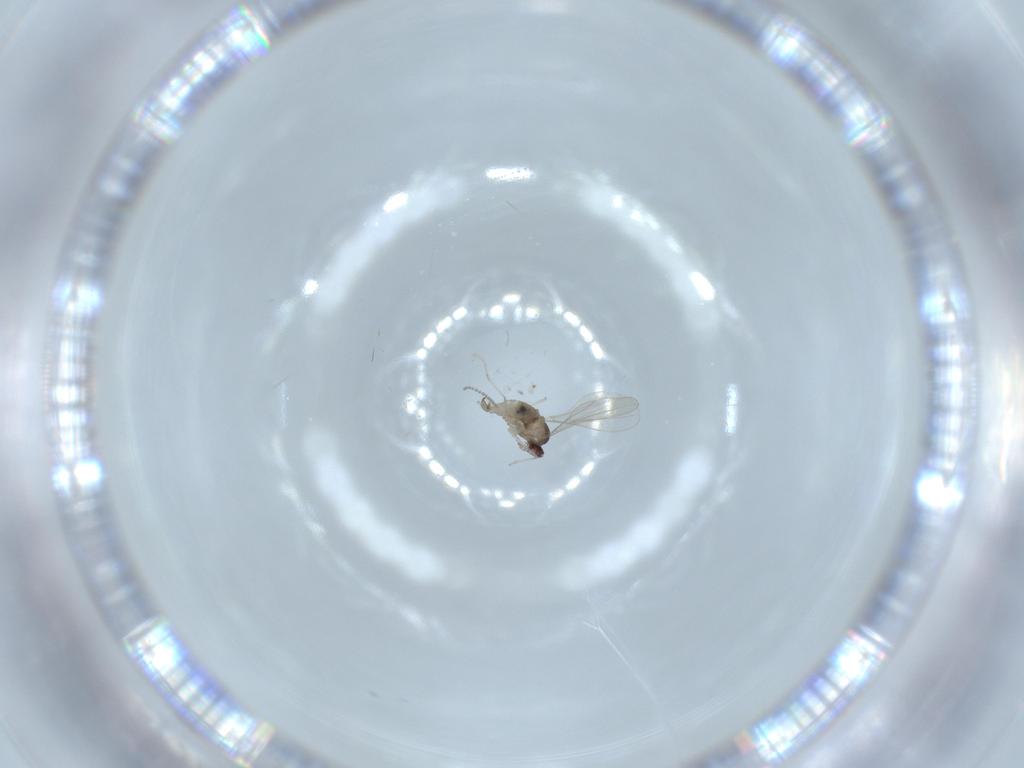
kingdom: Animalia
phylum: Arthropoda
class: Insecta
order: Diptera
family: Cecidomyiidae
